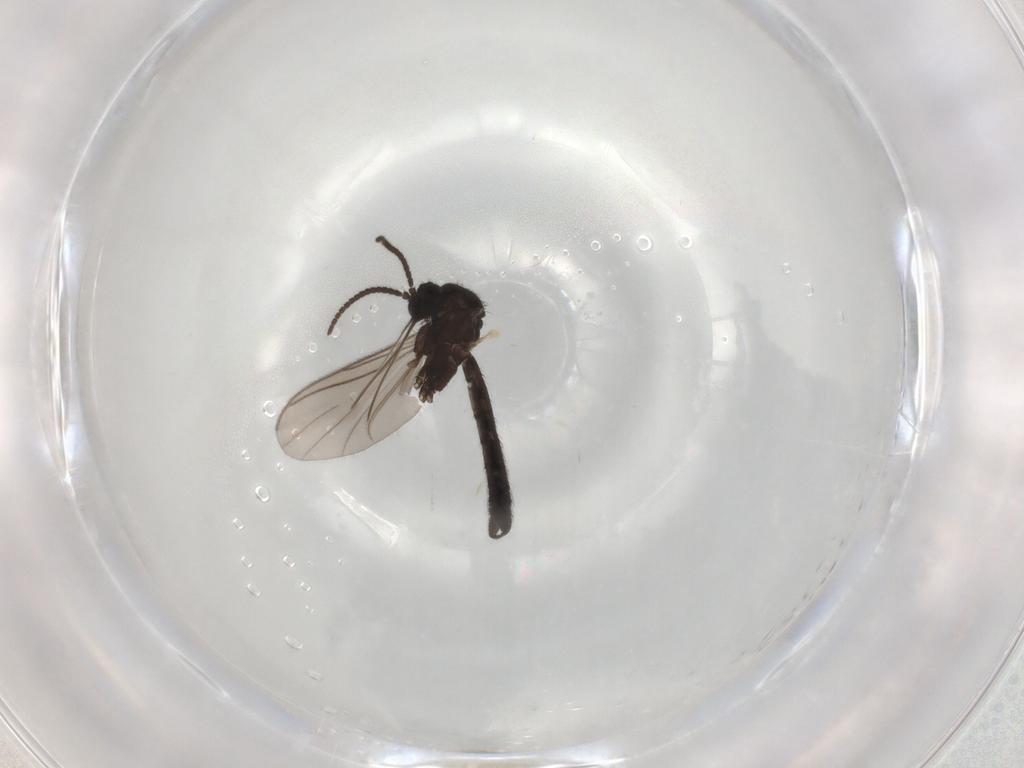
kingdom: Animalia
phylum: Arthropoda
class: Insecta
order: Diptera
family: Keroplatidae
